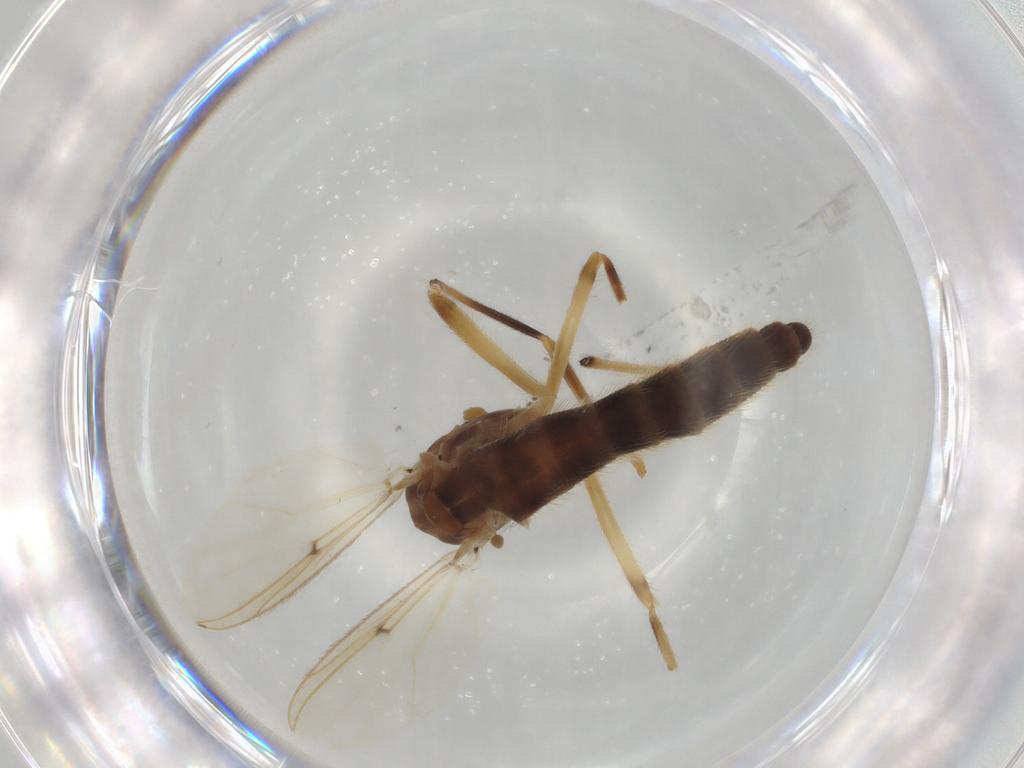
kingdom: Animalia
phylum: Arthropoda
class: Insecta
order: Diptera
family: Chironomidae
